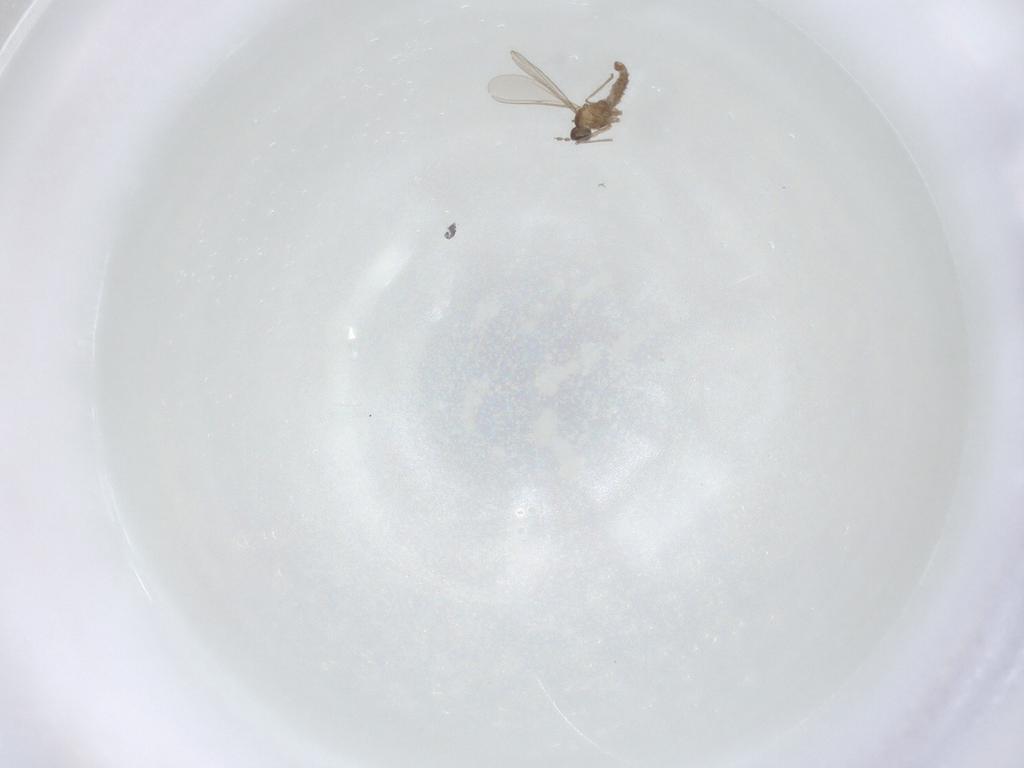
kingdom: Animalia
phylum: Arthropoda
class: Insecta
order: Diptera
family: Cecidomyiidae
